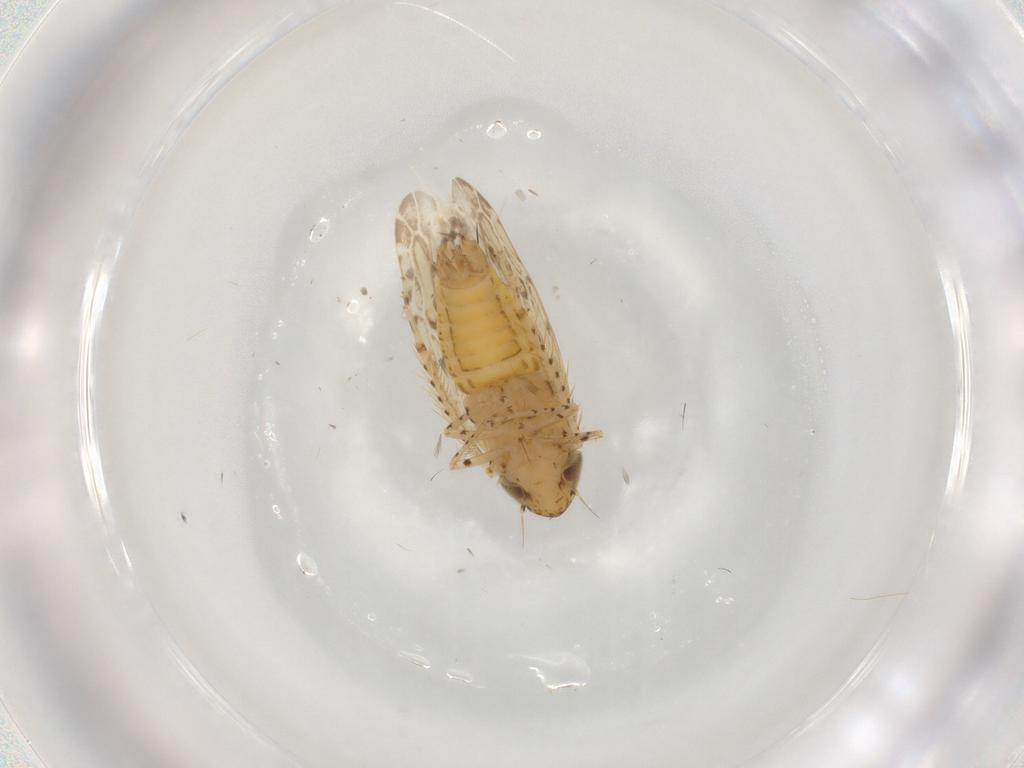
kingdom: Animalia
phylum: Arthropoda
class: Insecta
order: Hemiptera
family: Cicadellidae
